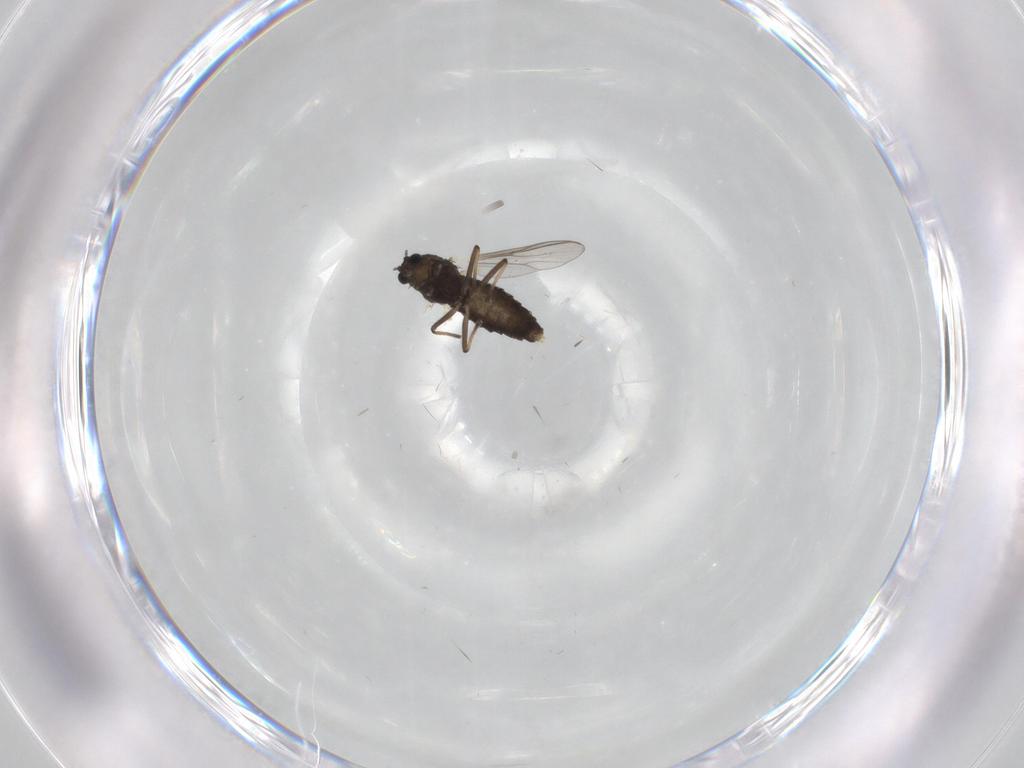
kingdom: Animalia
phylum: Arthropoda
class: Insecta
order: Diptera
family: Chironomidae
